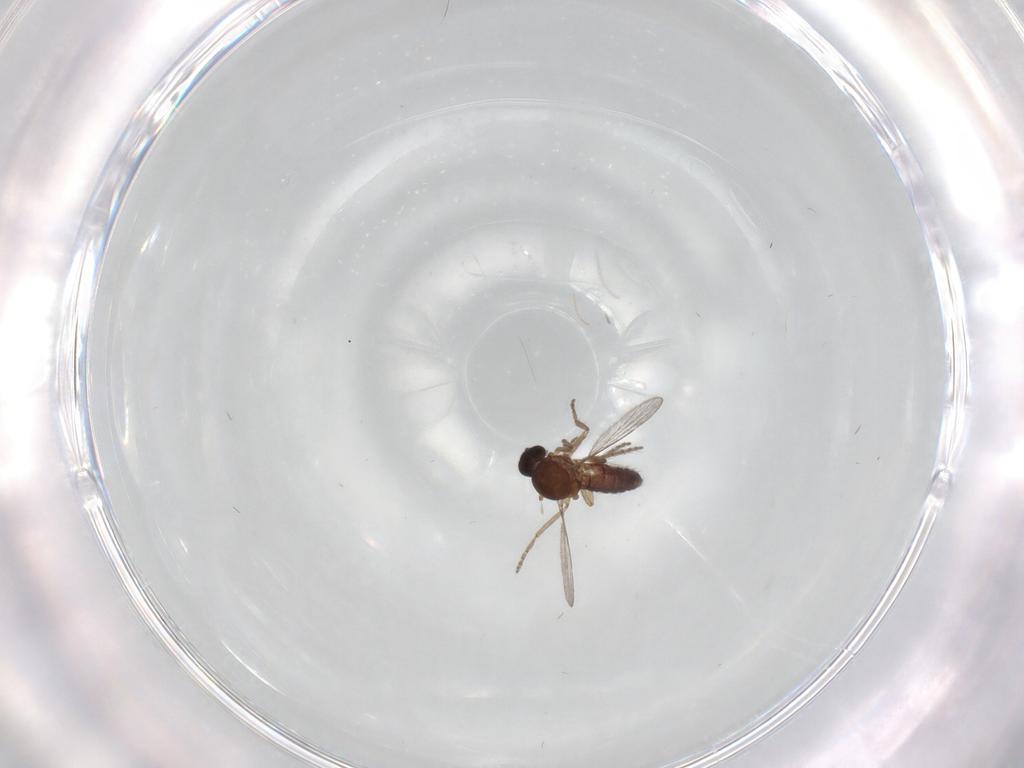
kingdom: Animalia
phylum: Arthropoda
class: Insecta
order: Diptera
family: Ceratopogonidae
